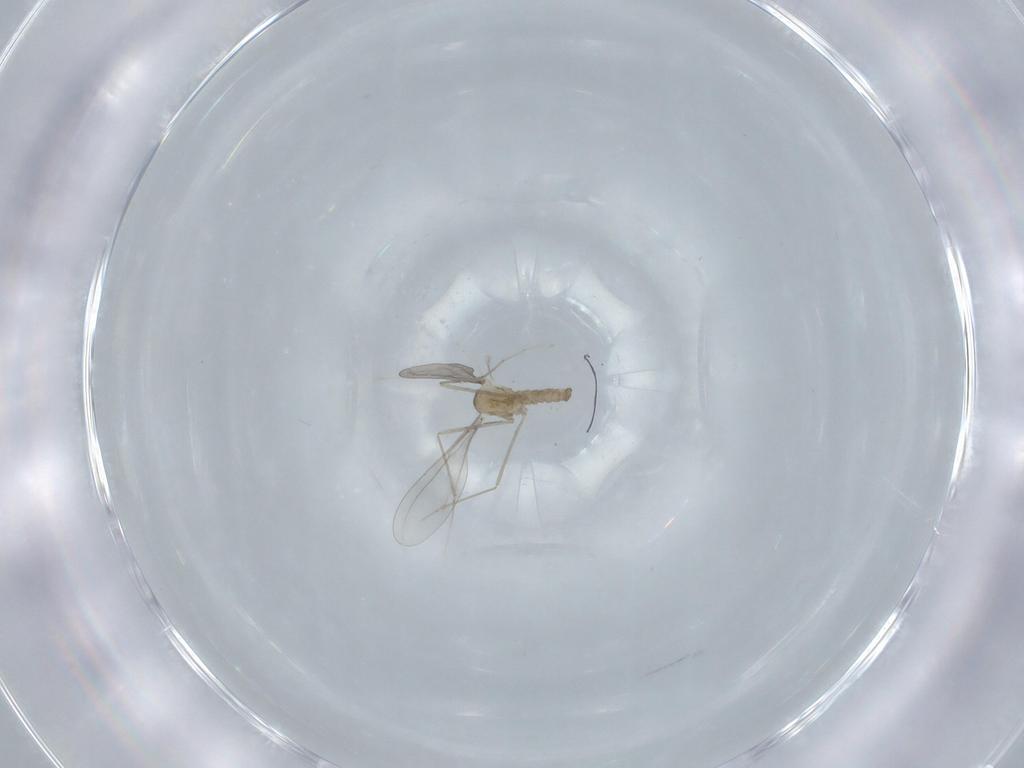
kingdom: Animalia
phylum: Arthropoda
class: Insecta
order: Diptera
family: Cecidomyiidae
